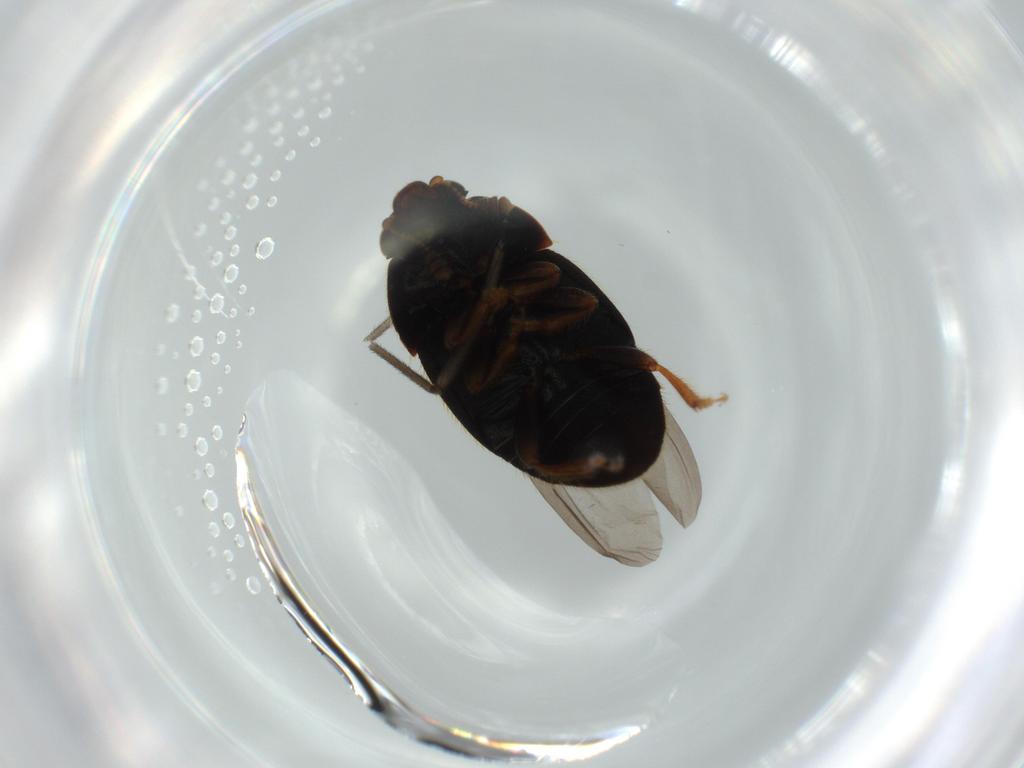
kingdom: Animalia
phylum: Arthropoda
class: Insecta
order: Coleoptera
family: Nitidulidae
